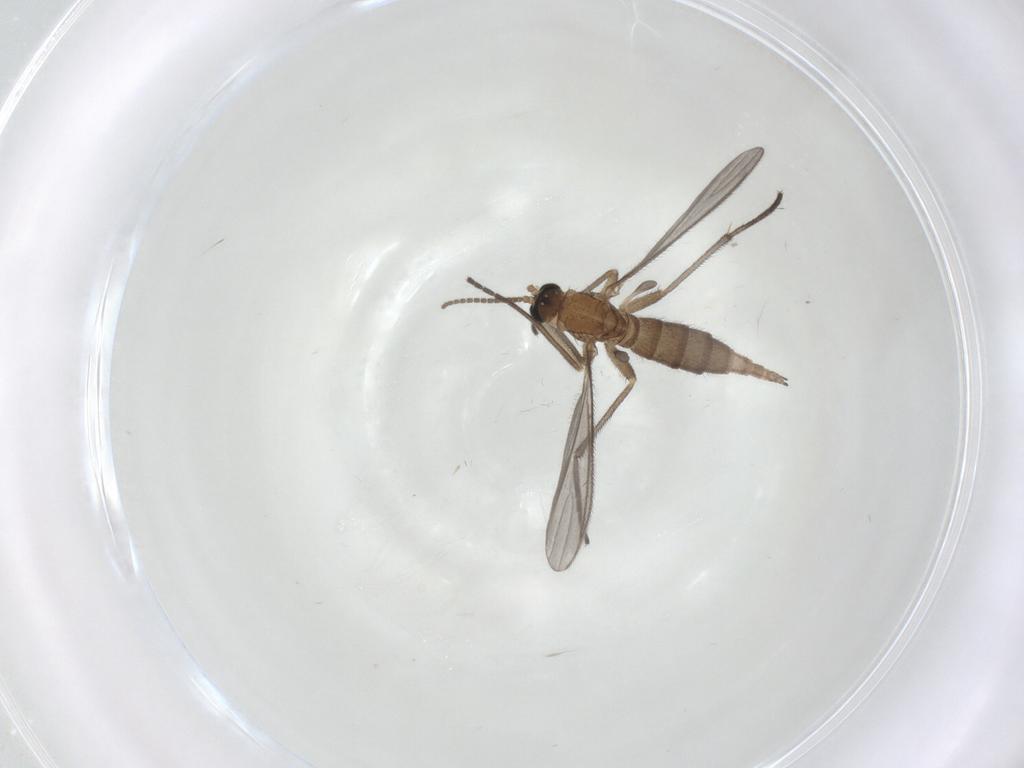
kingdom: Animalia
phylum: Arthropoda
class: Insecta
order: Diptera
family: Sciaridae
